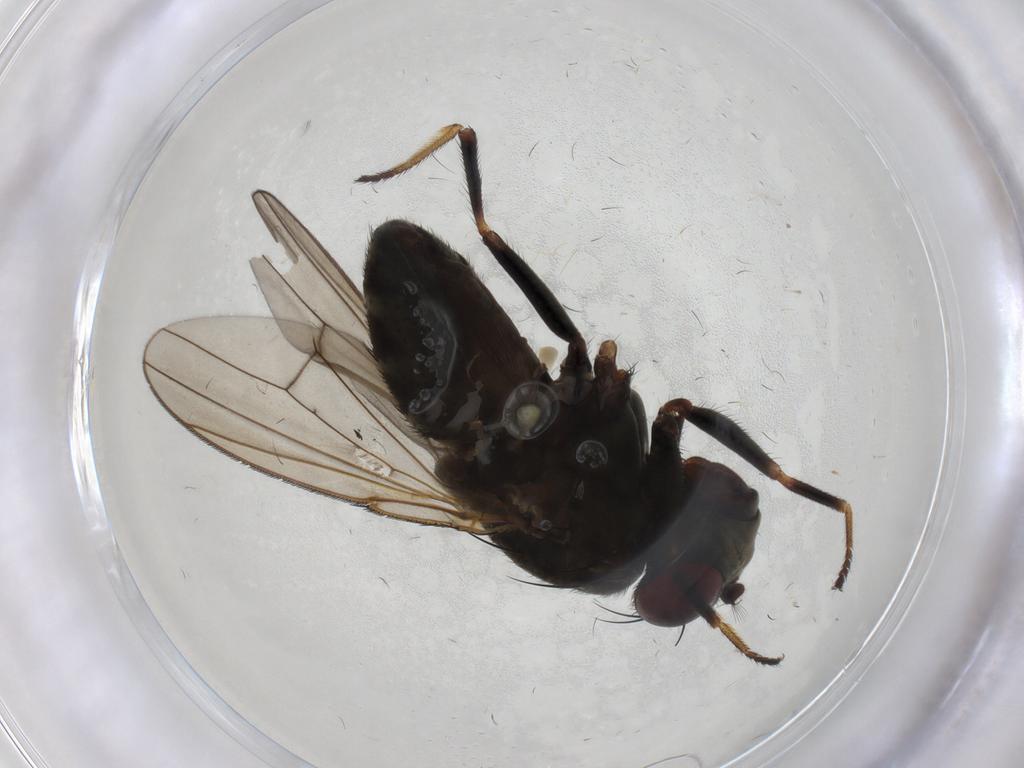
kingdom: Animalia
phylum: Arthropoda
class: Insecta
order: Diptera
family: Ephydridae
